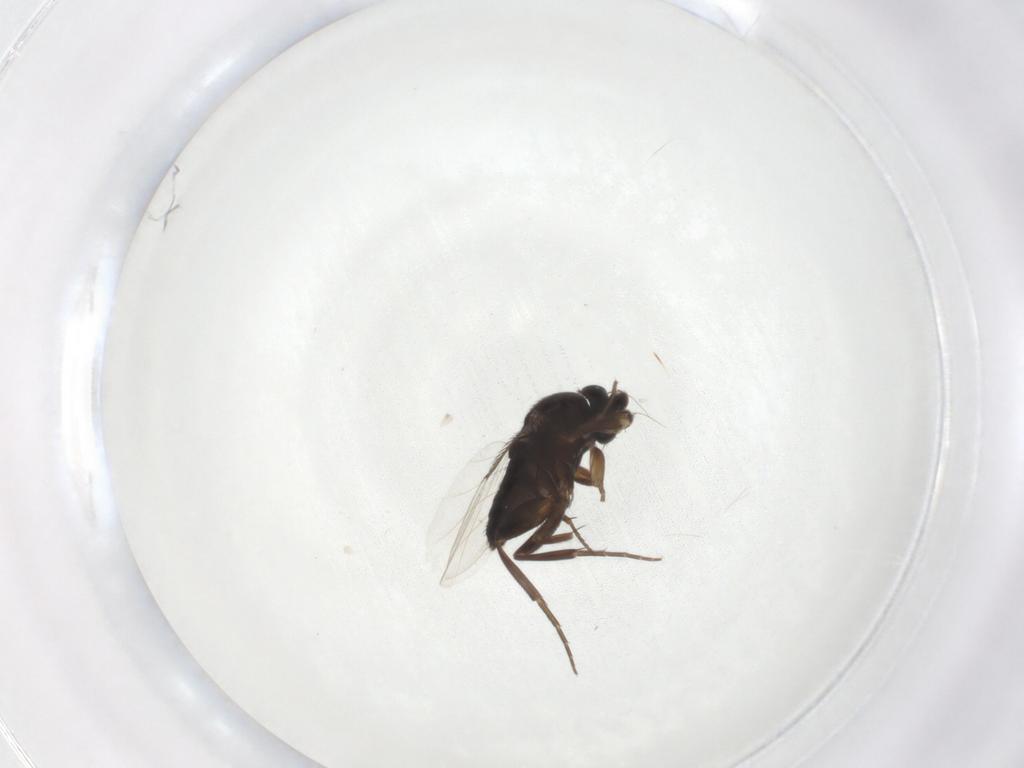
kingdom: Animalia
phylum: Arthropoda
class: Insecta
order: Diptera
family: Phoridae
